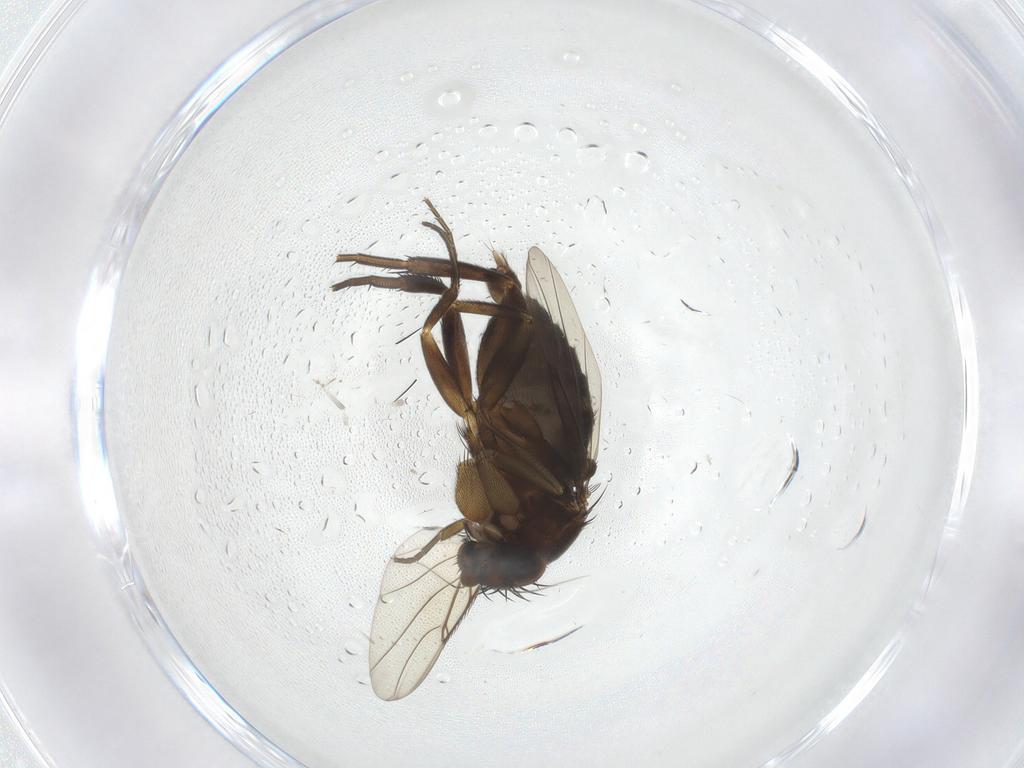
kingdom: Animalia
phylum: Arthropoda
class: Insecta
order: Diptera
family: Phoridae
